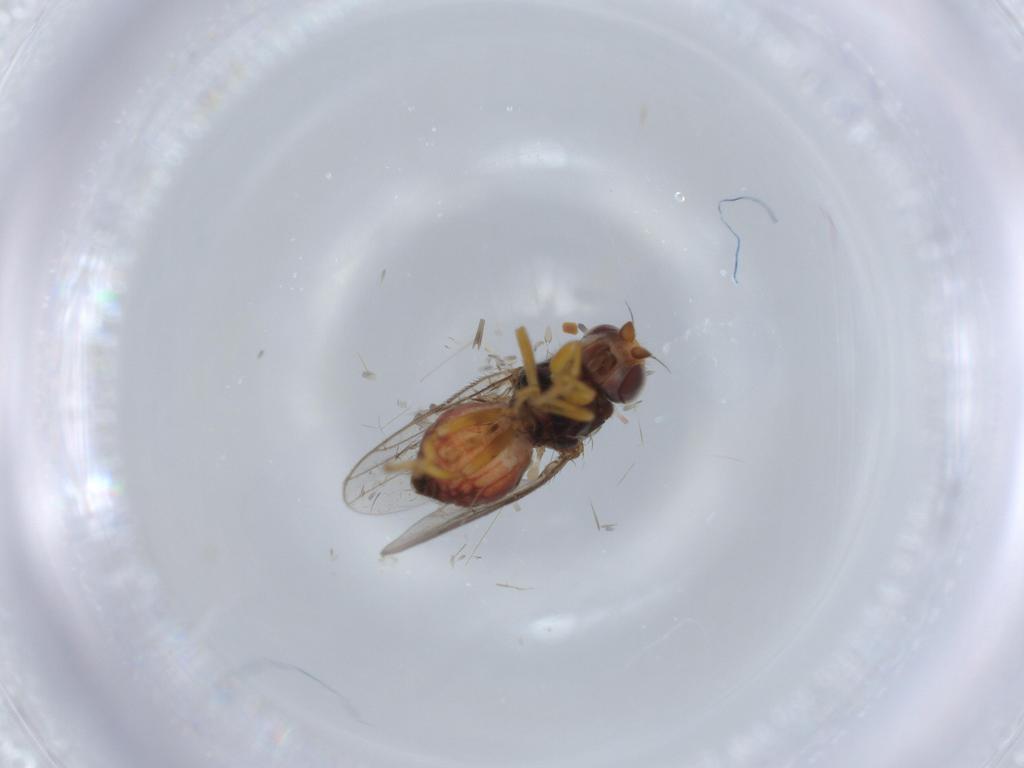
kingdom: Animalia
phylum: Arthropoda
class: Insecta
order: Diptera
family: Chloropidae
